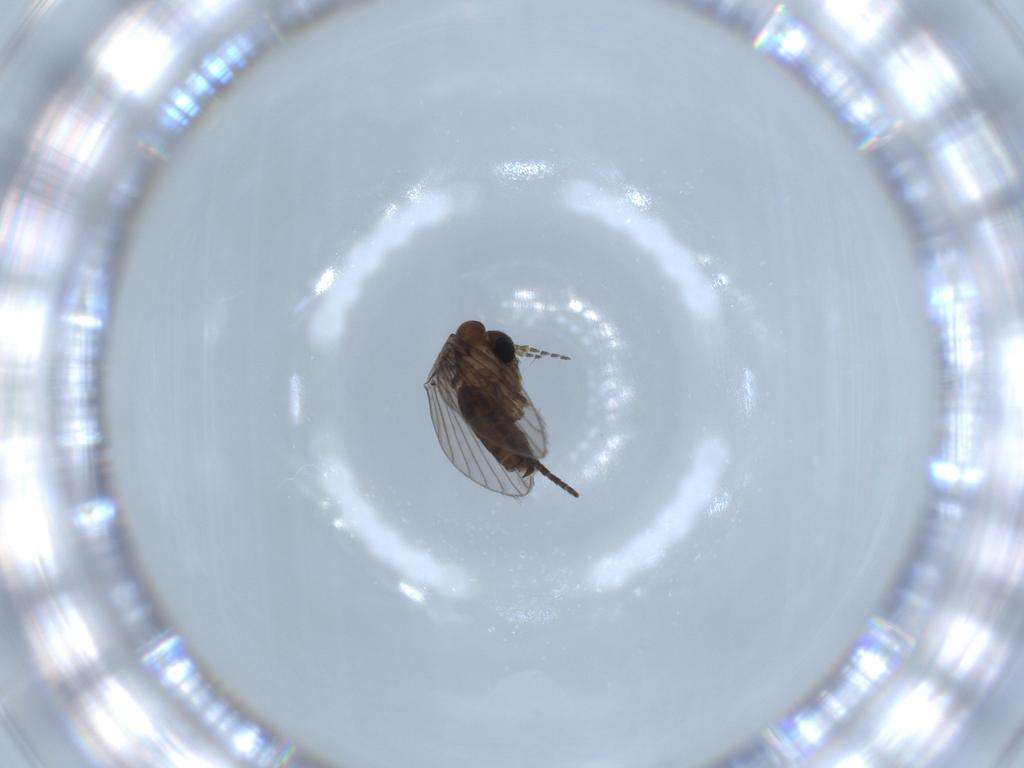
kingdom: Animalia
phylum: Arthropoda
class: Insecta
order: Diptera
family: Psychodidae
